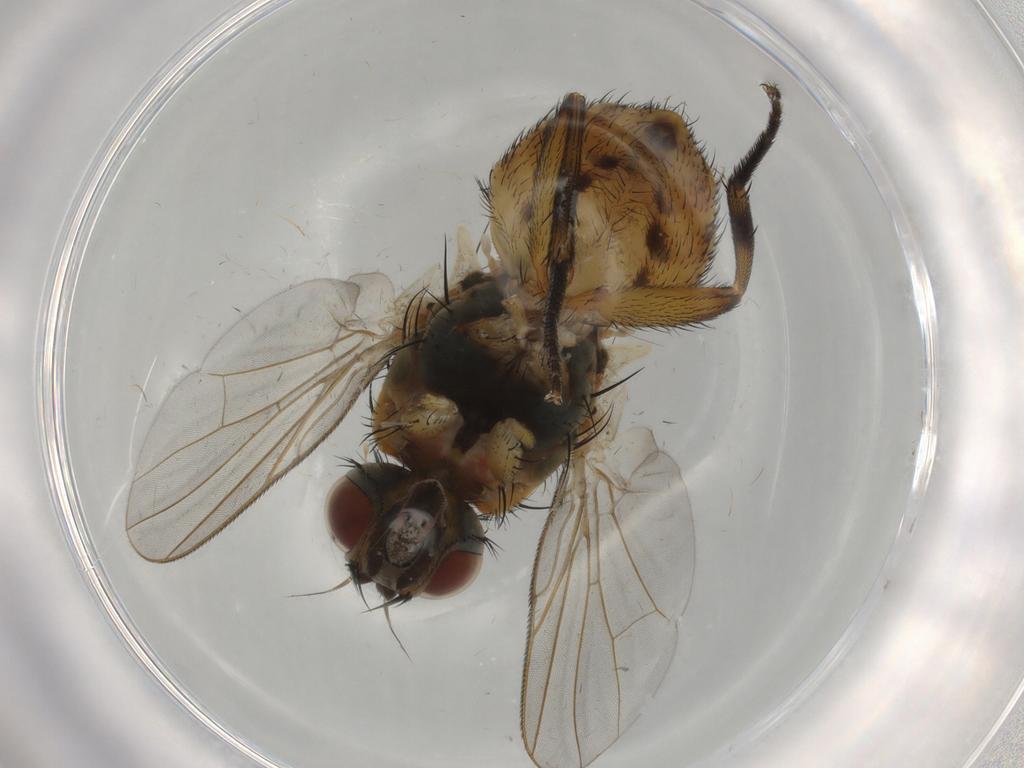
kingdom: Animalia
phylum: Arthropoda
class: Insecta
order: Diptera
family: Muscidae
